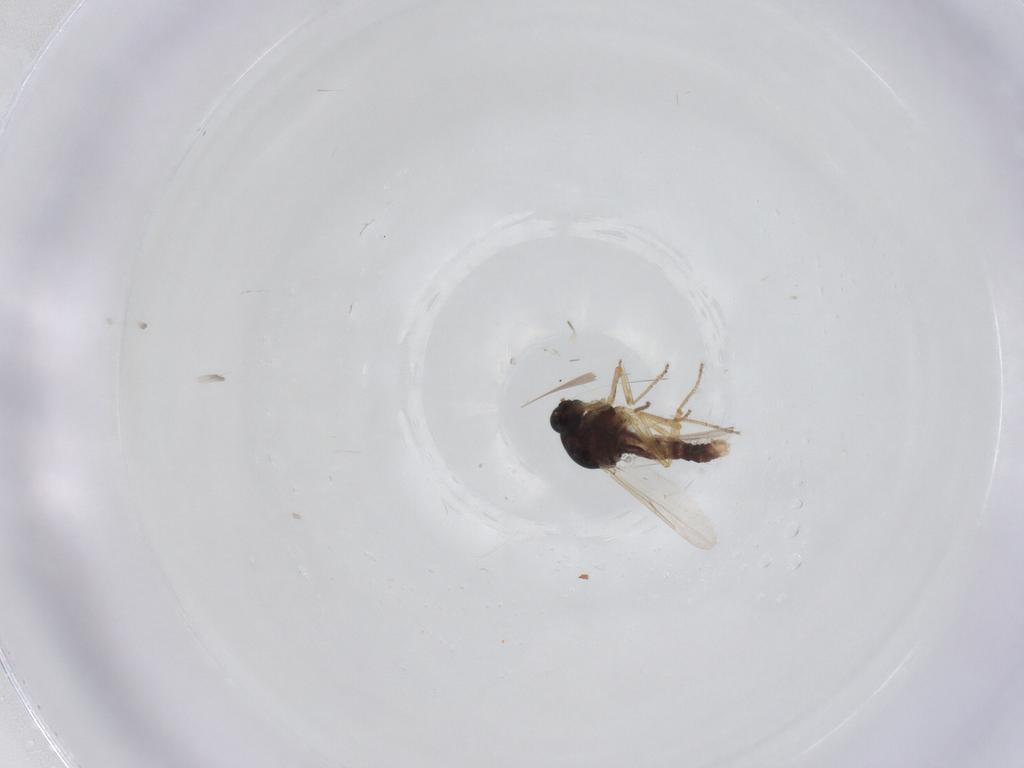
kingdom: Animalia
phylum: Arthropoda
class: Insecta
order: Diptera
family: Ceratopogonidae
